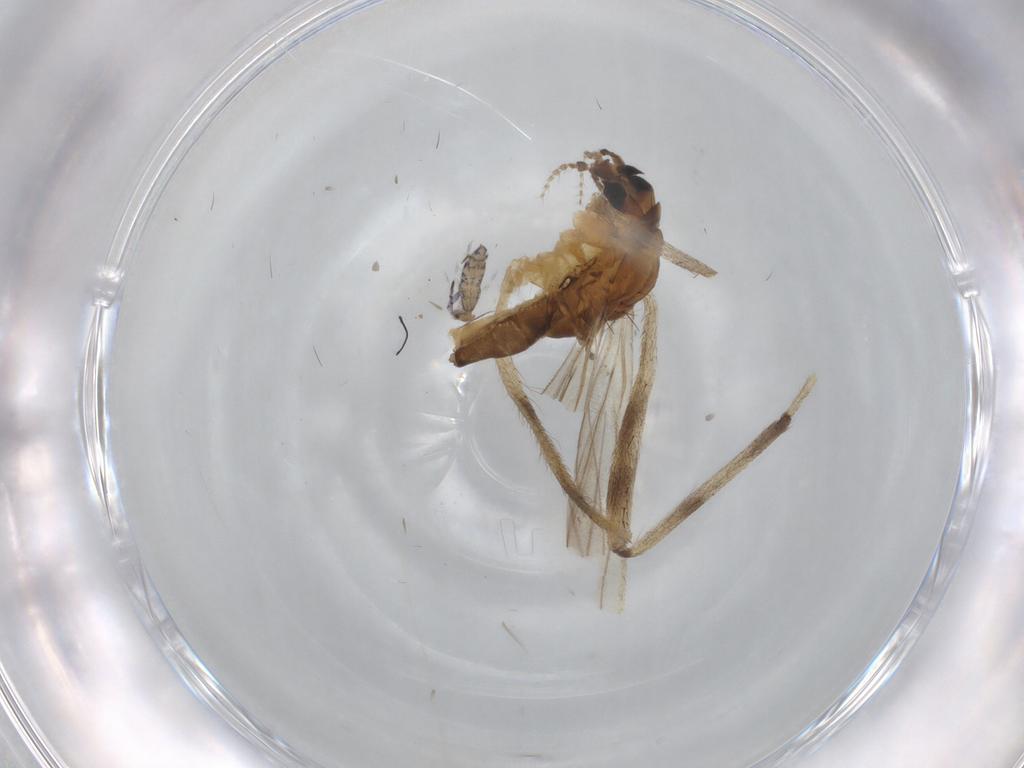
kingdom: Animalia
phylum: Arthropoda
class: Insecta
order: Diptera
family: Limoniidae
